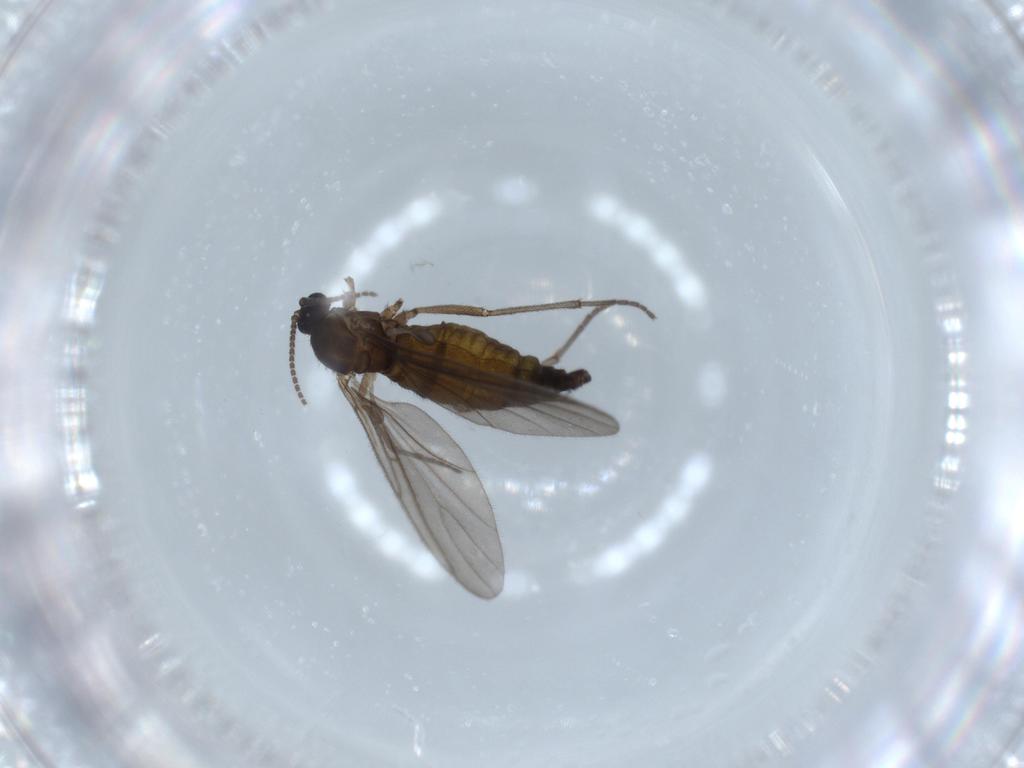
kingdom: Animalia
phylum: Arthropoda
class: Insecta
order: Diptera
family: Sciaridae
